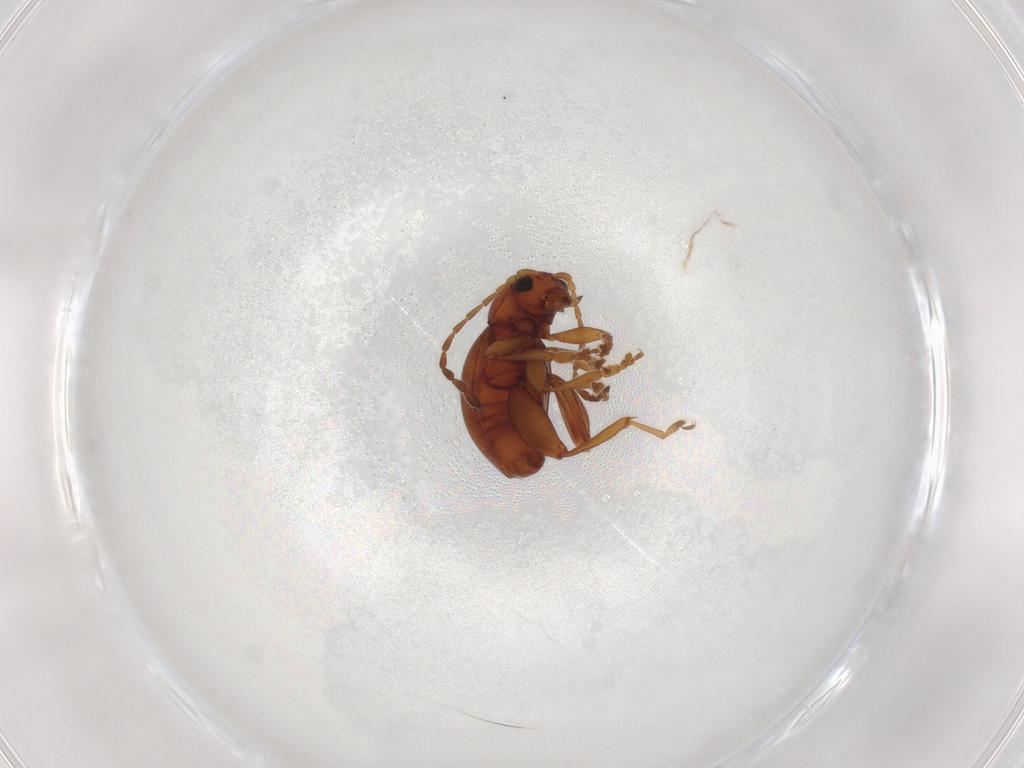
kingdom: Animalia
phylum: Arthropoda
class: Insecta
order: Coleoptera
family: Chrysomelidae
